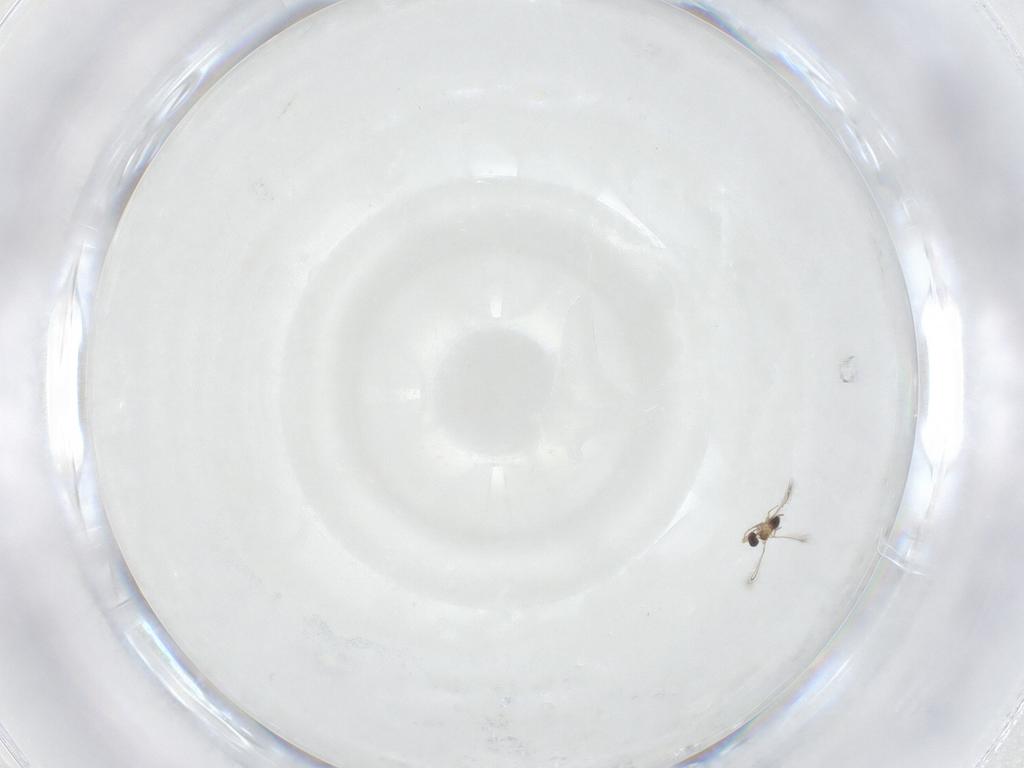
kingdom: Animalia
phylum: Arthropoda
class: Insecta
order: Hymenoptera
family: Mymaridae
